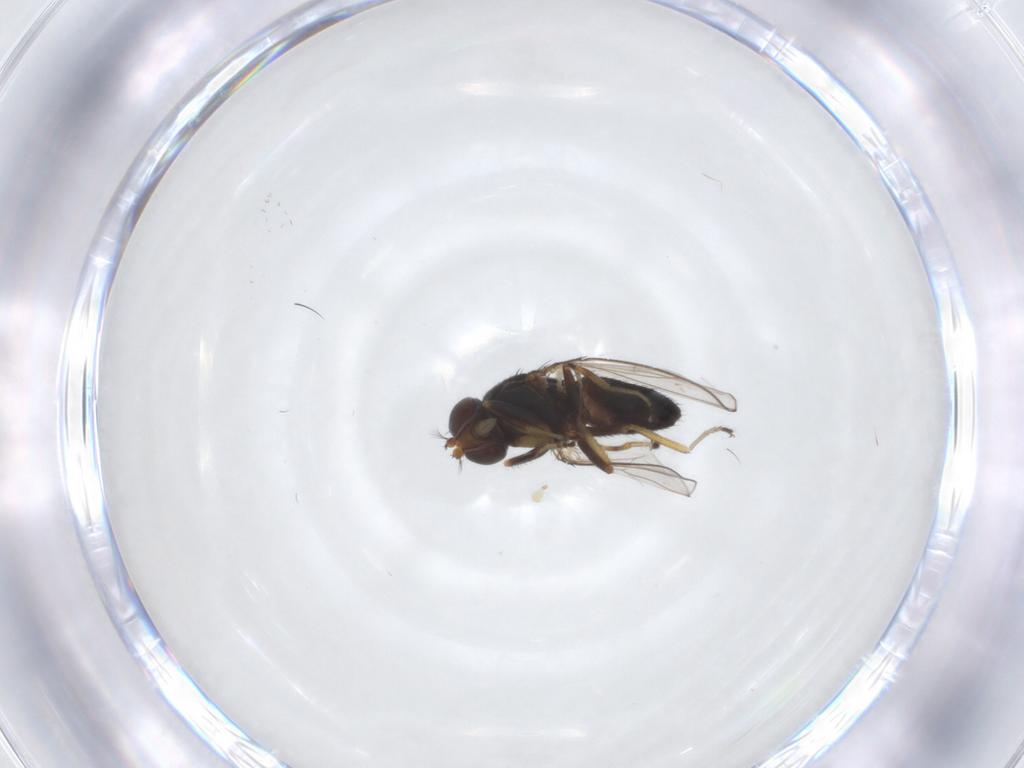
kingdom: Animalia
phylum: Arthropoda
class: Insecta
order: Diptera
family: Ephydridae
